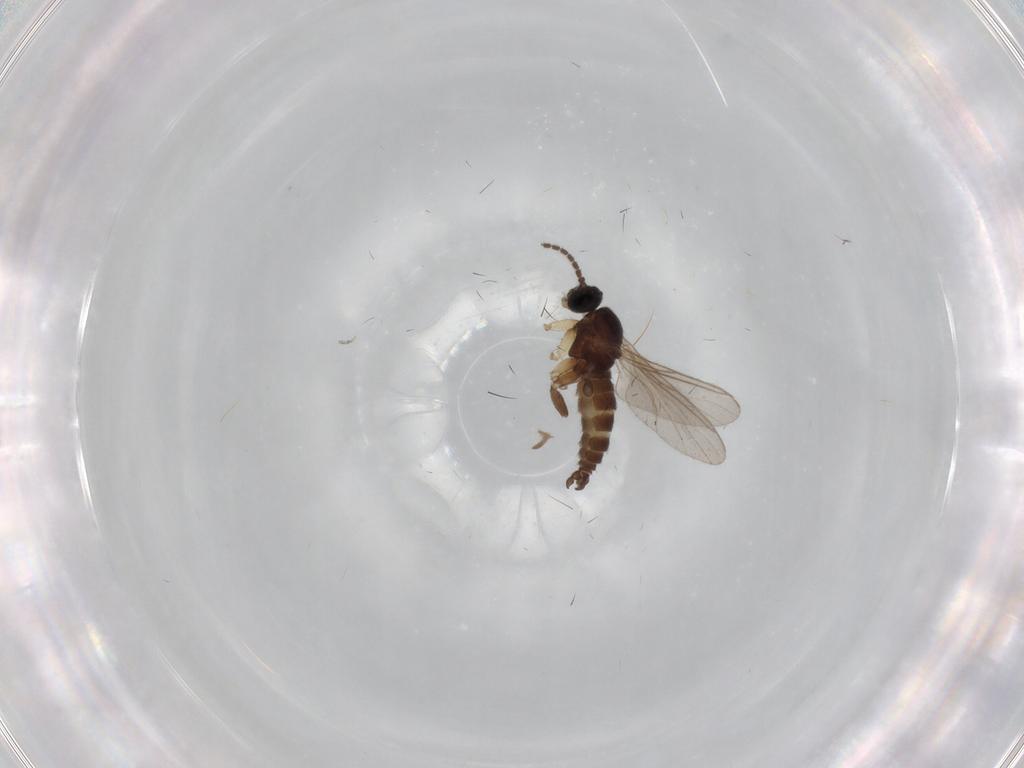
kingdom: Animalia
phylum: Arthropoda
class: Insecta
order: Diptera
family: Sciaridae
